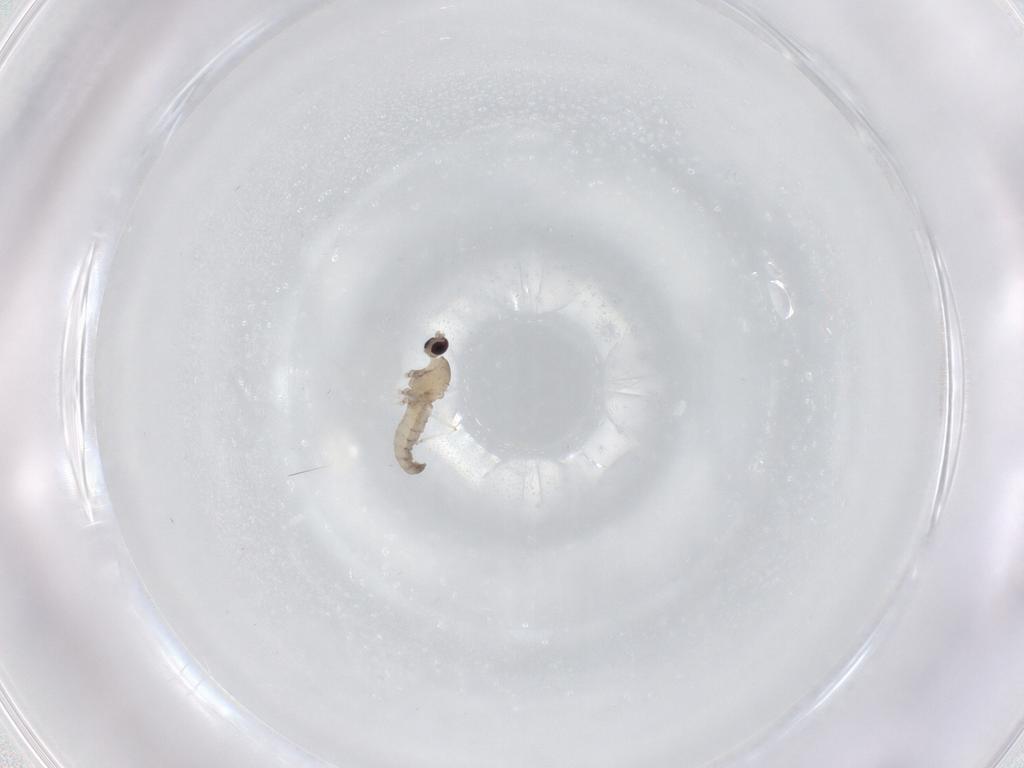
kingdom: Animalia
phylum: Arthropoda
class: Insecta
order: Diptera
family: Cecidomyiidae
